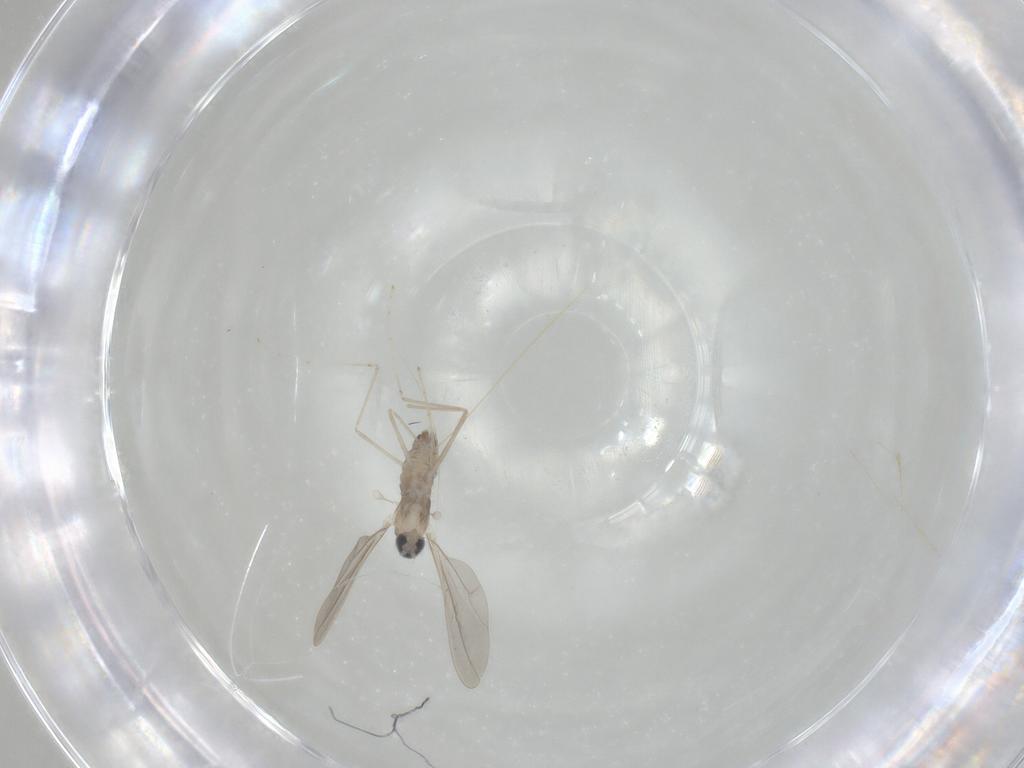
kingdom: Animalia
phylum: Arthropoda
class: Insecta
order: Diptera
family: Cecidomyiidae
